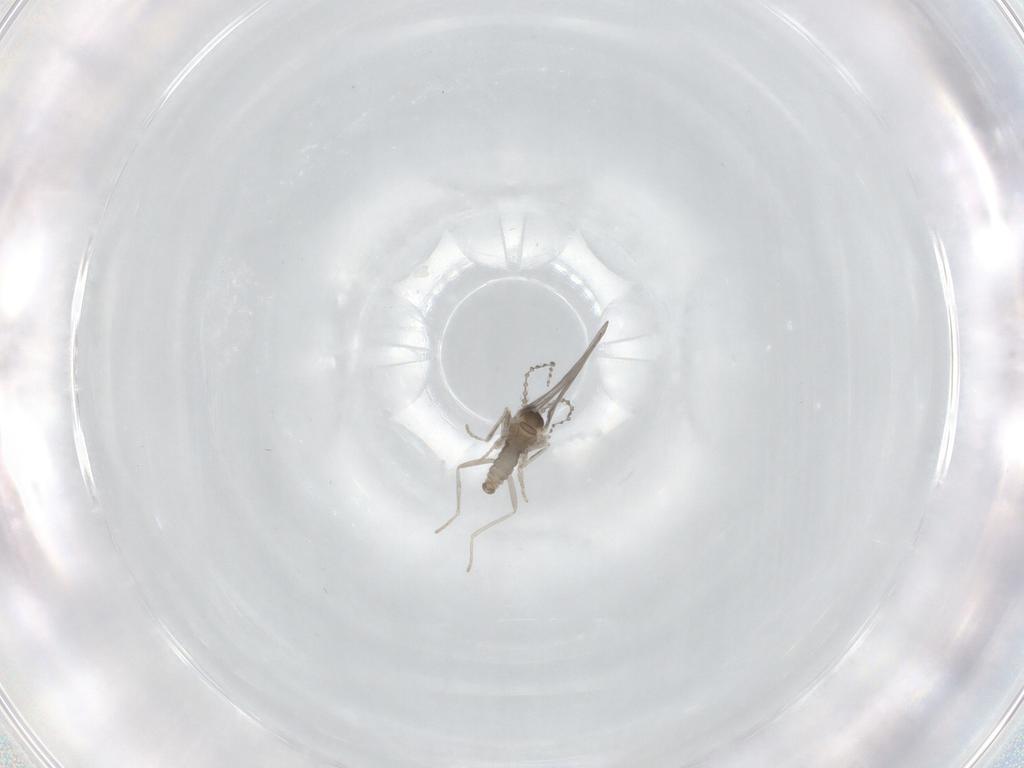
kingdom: Animalia
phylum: Arthropoda
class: Insecta
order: Diptera
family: Cecidomyiidae
